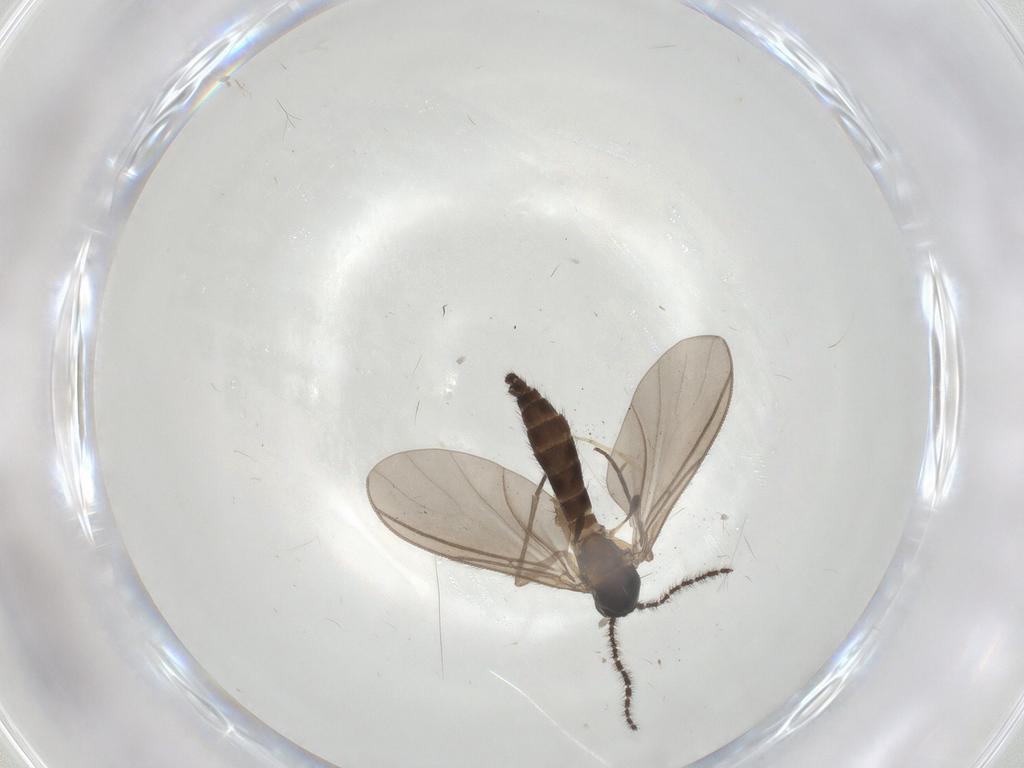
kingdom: Animalia
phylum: Arthropoda
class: Insecta
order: Diptera
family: Sciaridae
